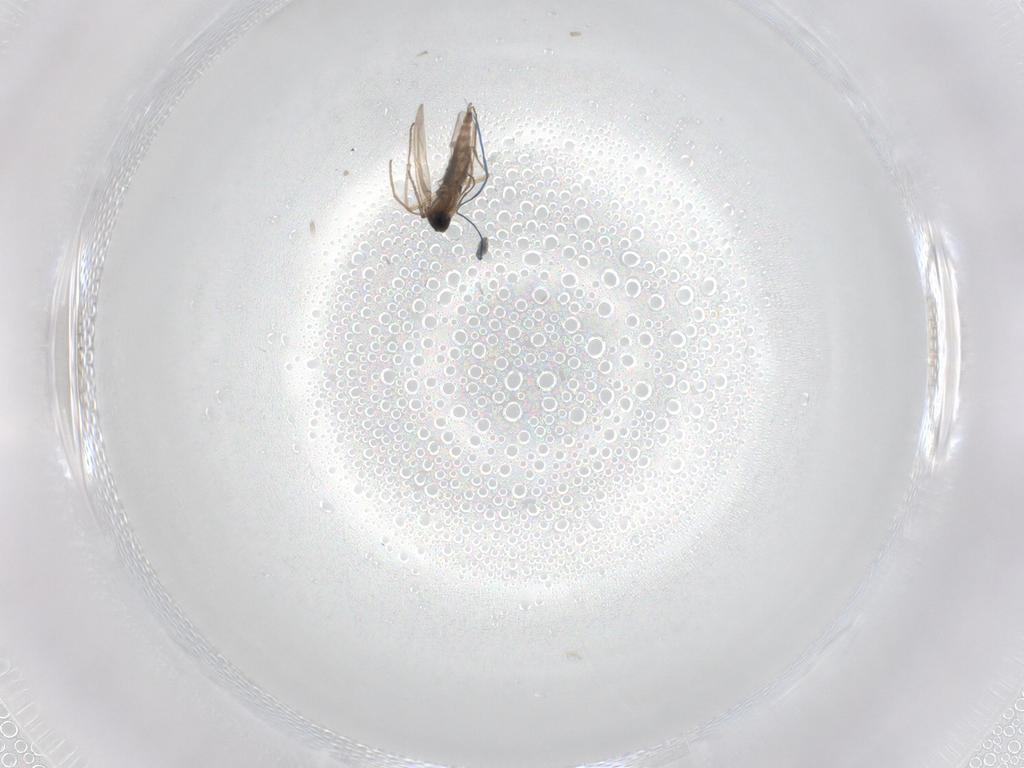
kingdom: Animalia
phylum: Arthropoda
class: Insecta
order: Diptera
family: Sciaridae
